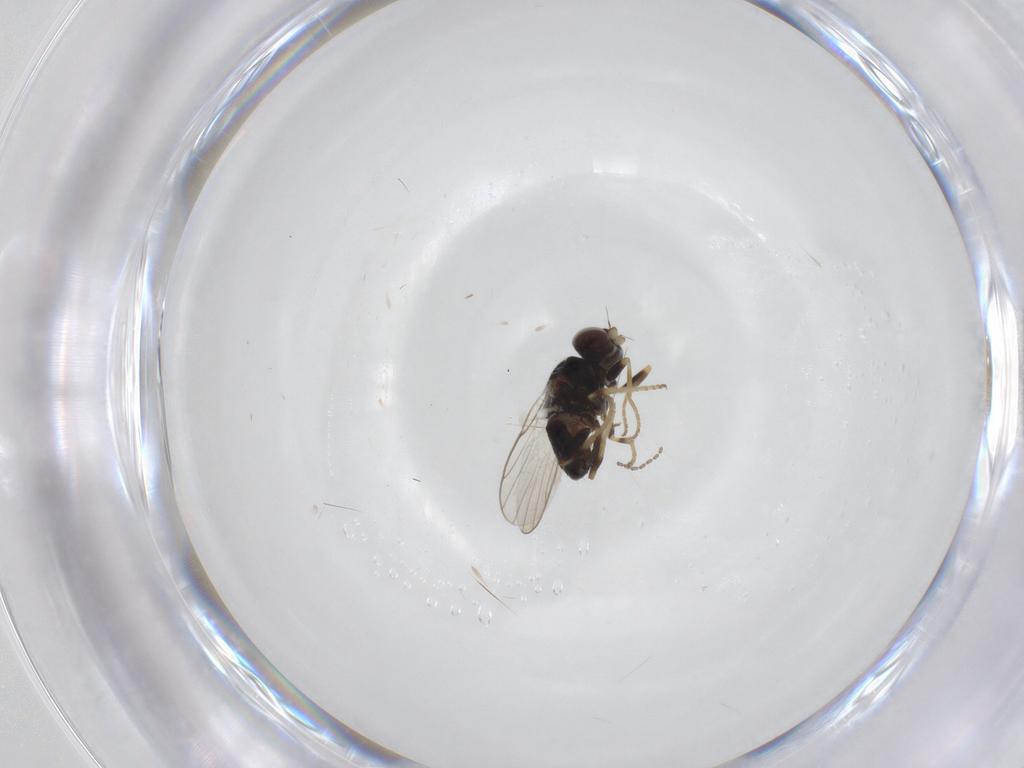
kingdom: Animalia
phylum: Arthropoda
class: Insecta
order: Diptera
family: Chloropidae
